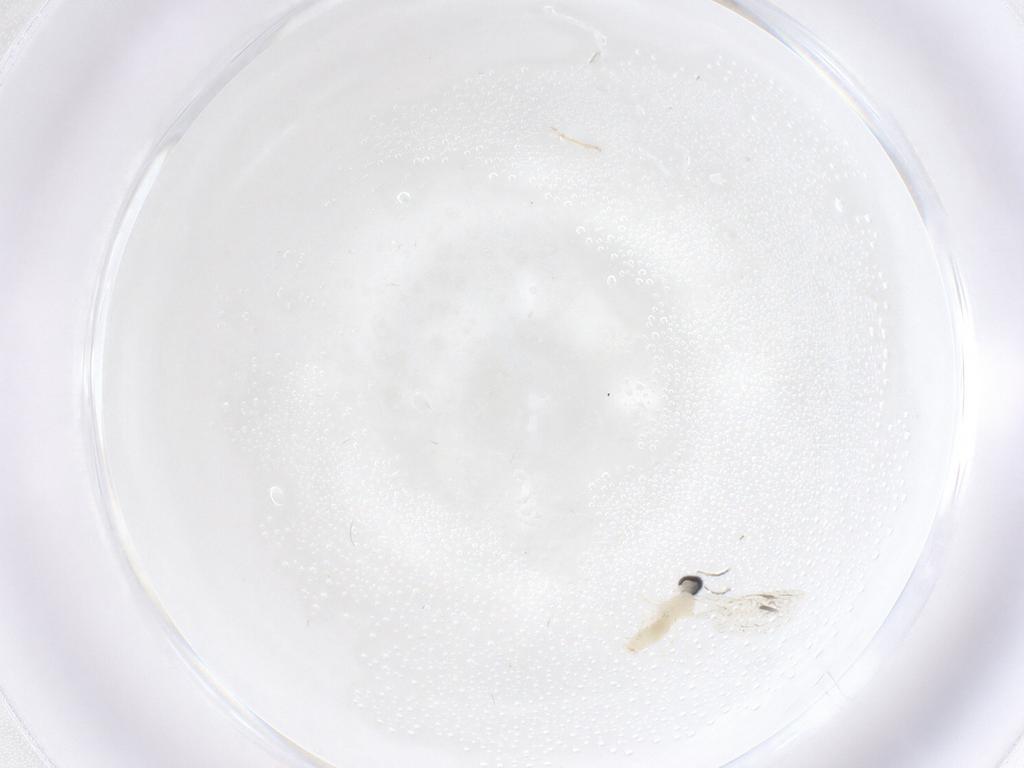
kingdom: Animalia
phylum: Arthropoda
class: Insecta
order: Diptera
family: Cecidomyiidae
